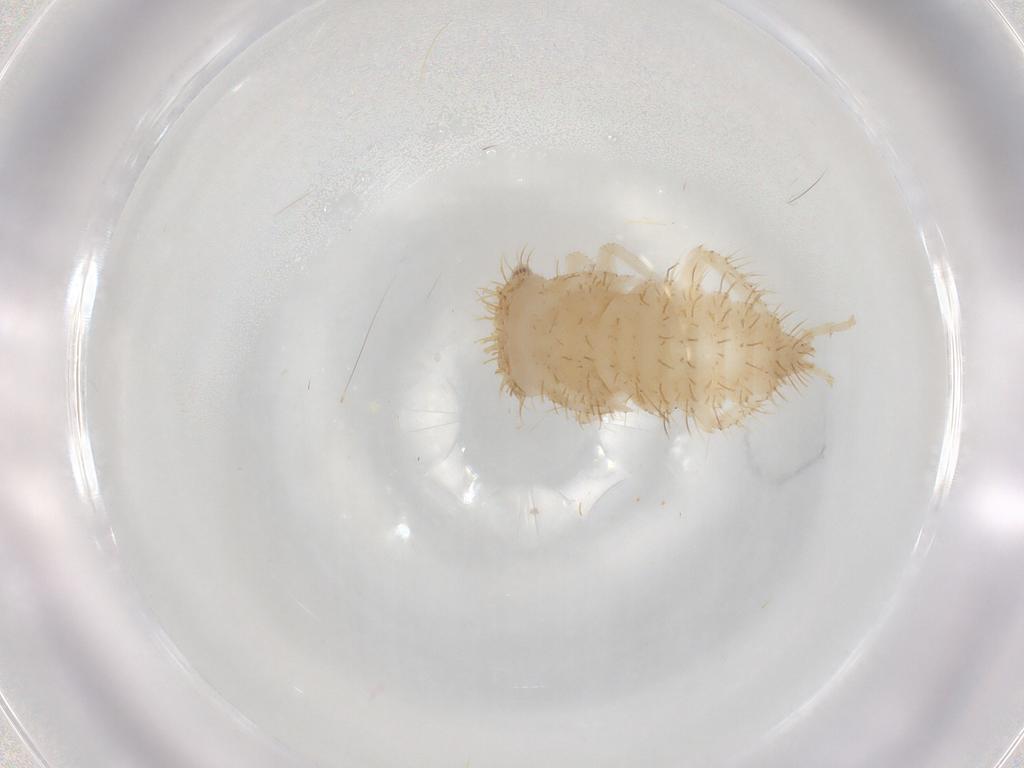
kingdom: Animalia
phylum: Arthropoda
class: Insecta
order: Hemiptera
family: Cicadellidae
